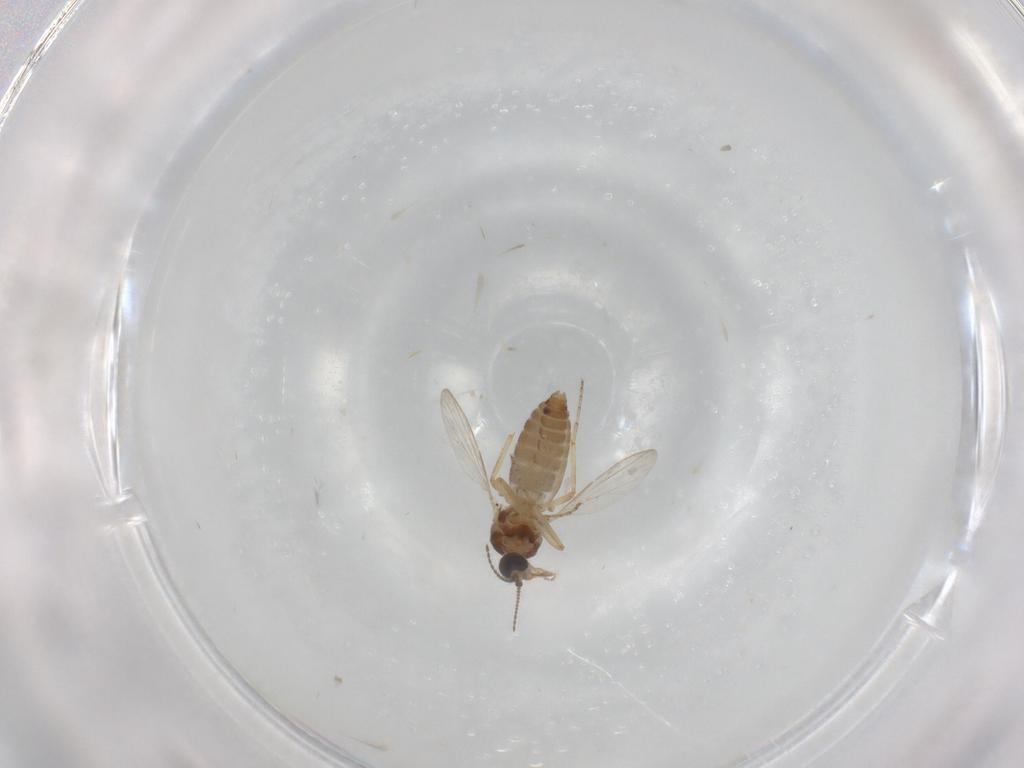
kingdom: Animalia
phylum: Arthropoda
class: Insecta
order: Diptera
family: Ceratopogonidae
